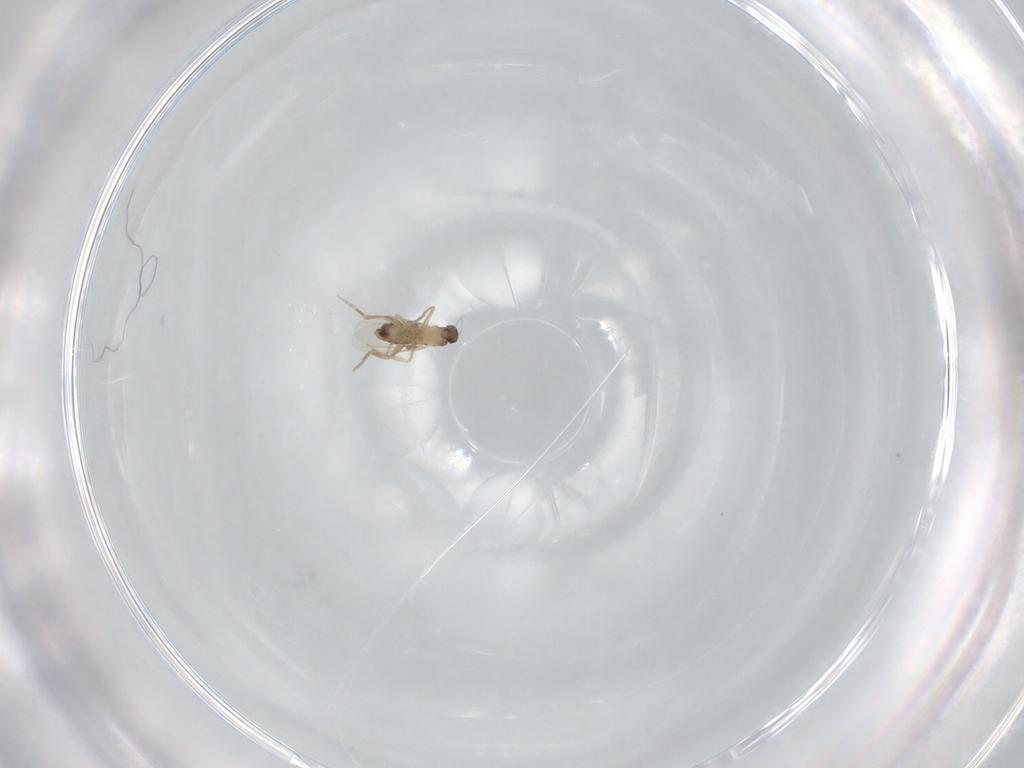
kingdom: Animalia
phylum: Arthropoda
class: Insecta
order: Diptera
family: Phoridae
